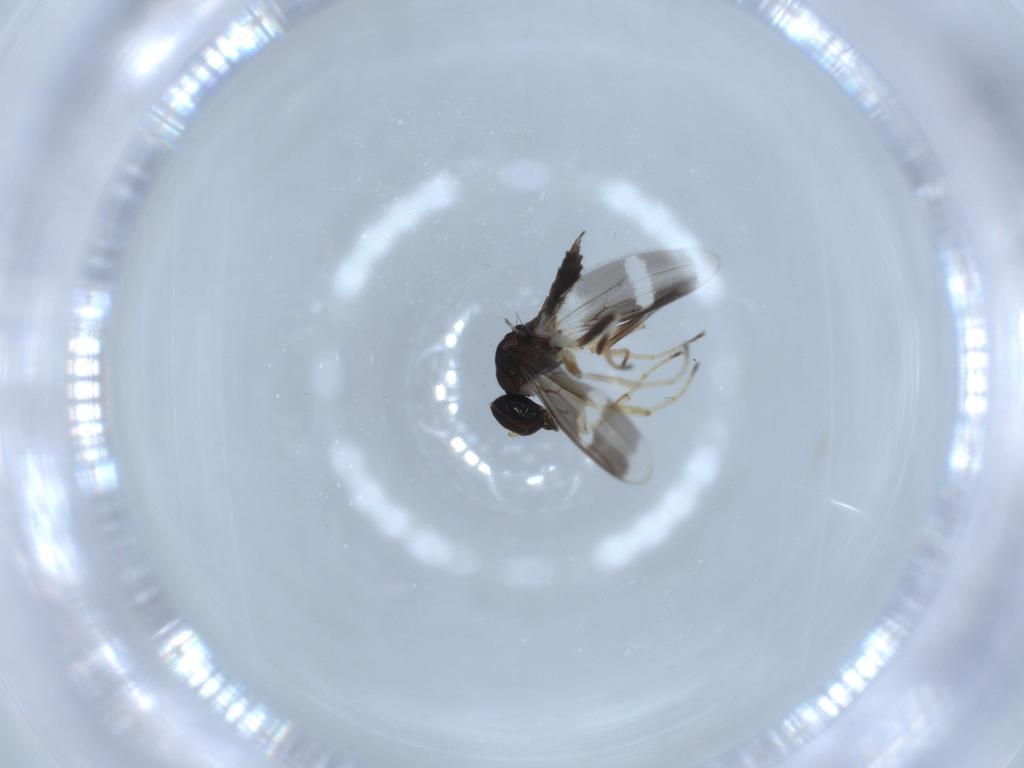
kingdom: Animalia
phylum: Arthropoda
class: Insecta
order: Diptera
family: Hybotidae
